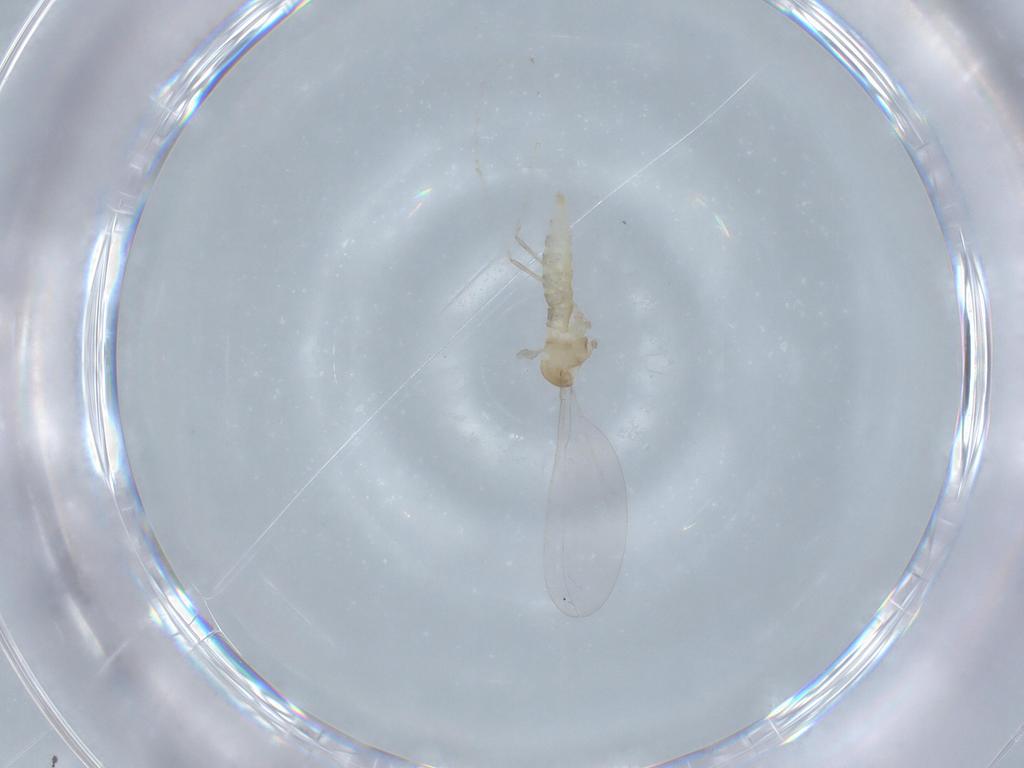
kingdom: Animalia
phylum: Arthropoda
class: Insecta
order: Diptera
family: Cecidomyiidae
